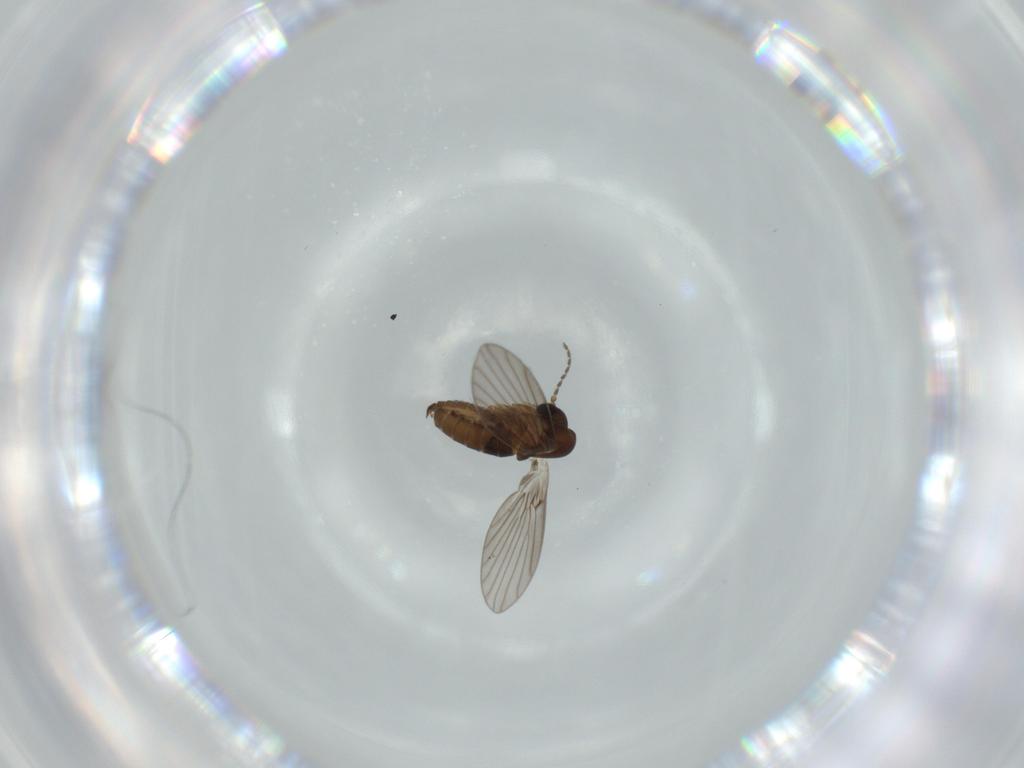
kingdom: Animalia
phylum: Arthropoda
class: Insecta
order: Diptera
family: Psychodidae
